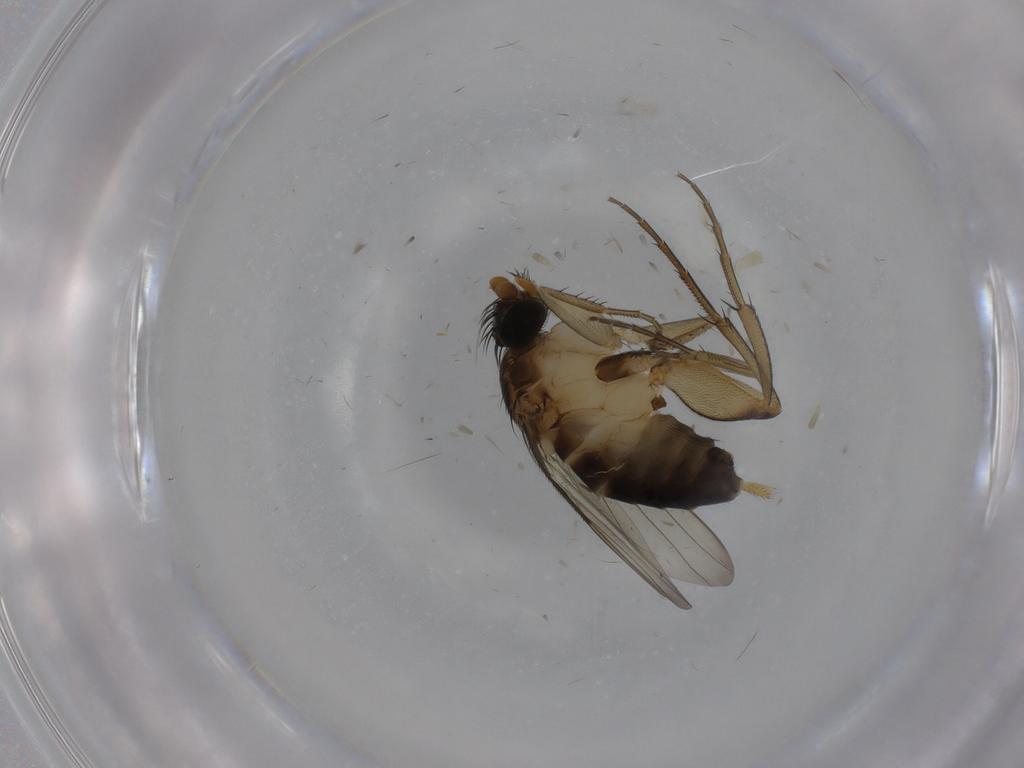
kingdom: Animalia
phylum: Arthropoda
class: Insecta
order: Diptera
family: Phoridae
